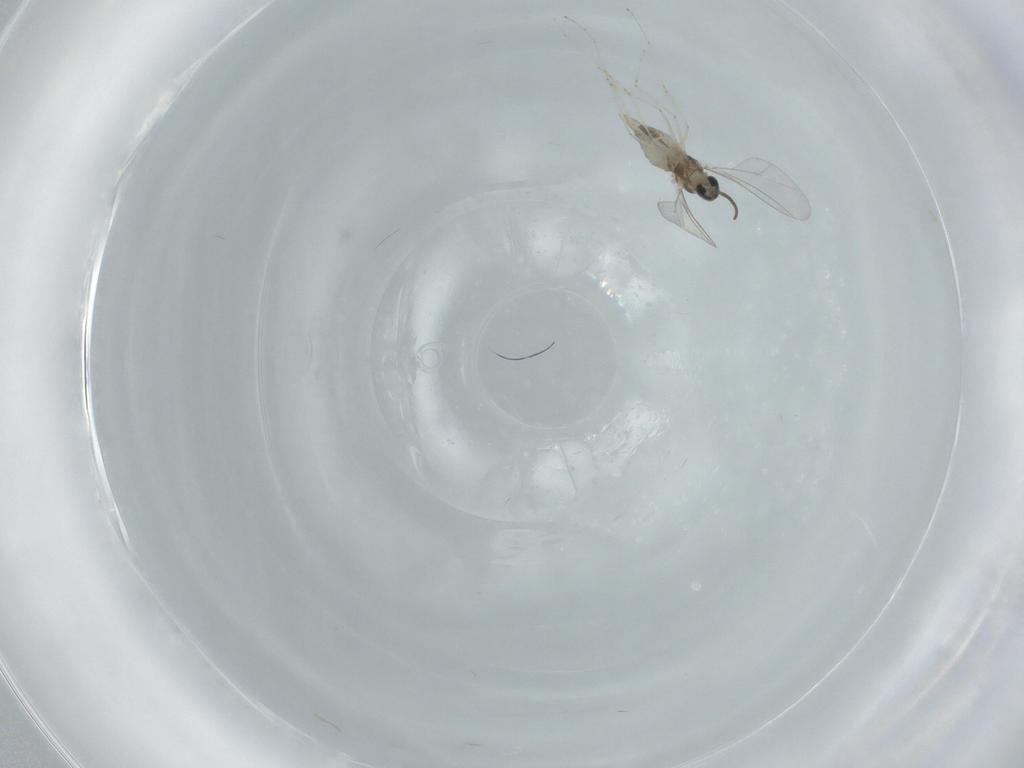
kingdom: Animalia
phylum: Arthropoda
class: Insecta
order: Diptera
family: Cecidomyiidae
